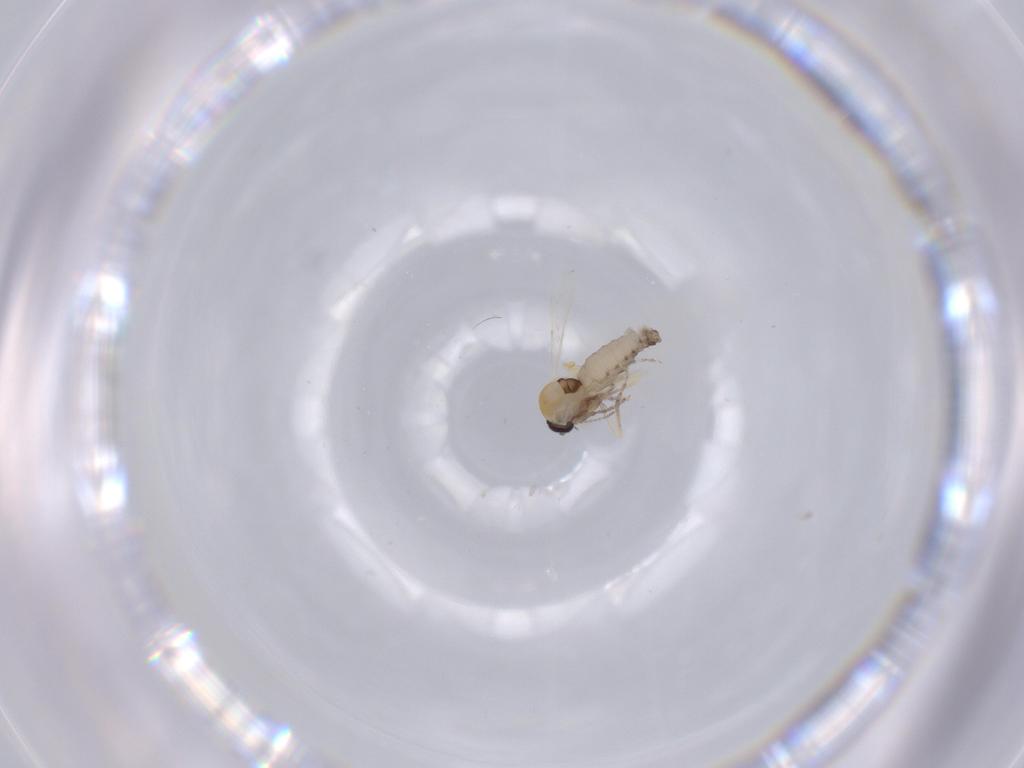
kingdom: Animalia
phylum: Arthropoda
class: Insecta
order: Diptera
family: Ceratopogonidae
